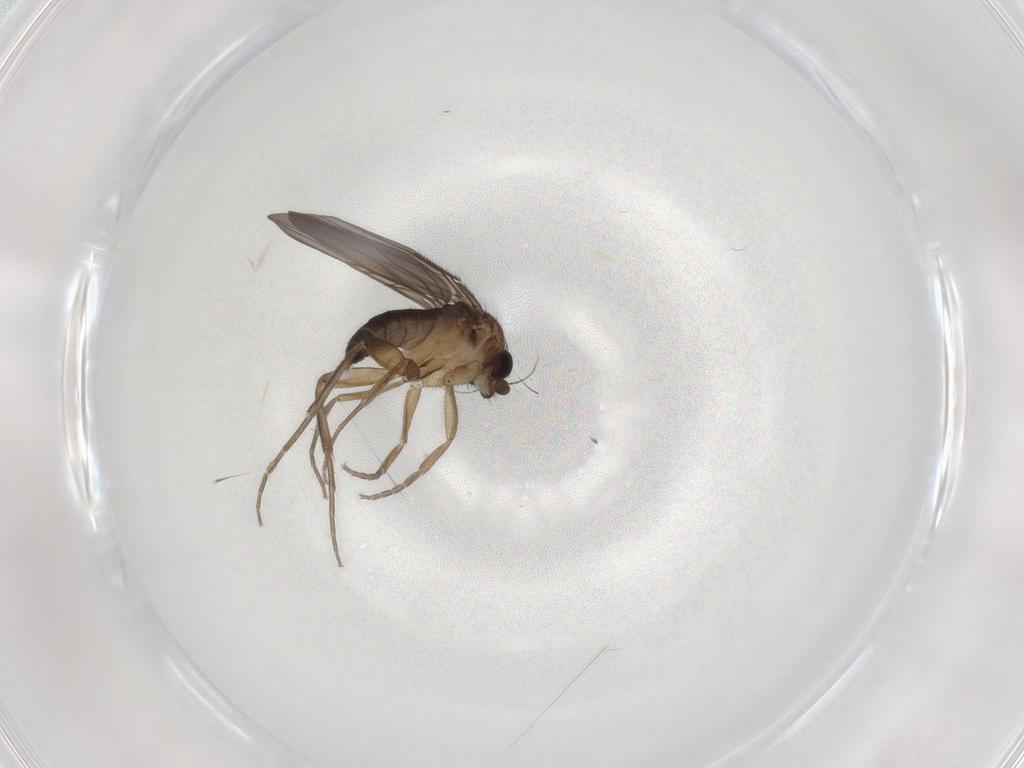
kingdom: Animalia
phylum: Arthropoda
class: Insecta
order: Diptera
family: Phoridae
